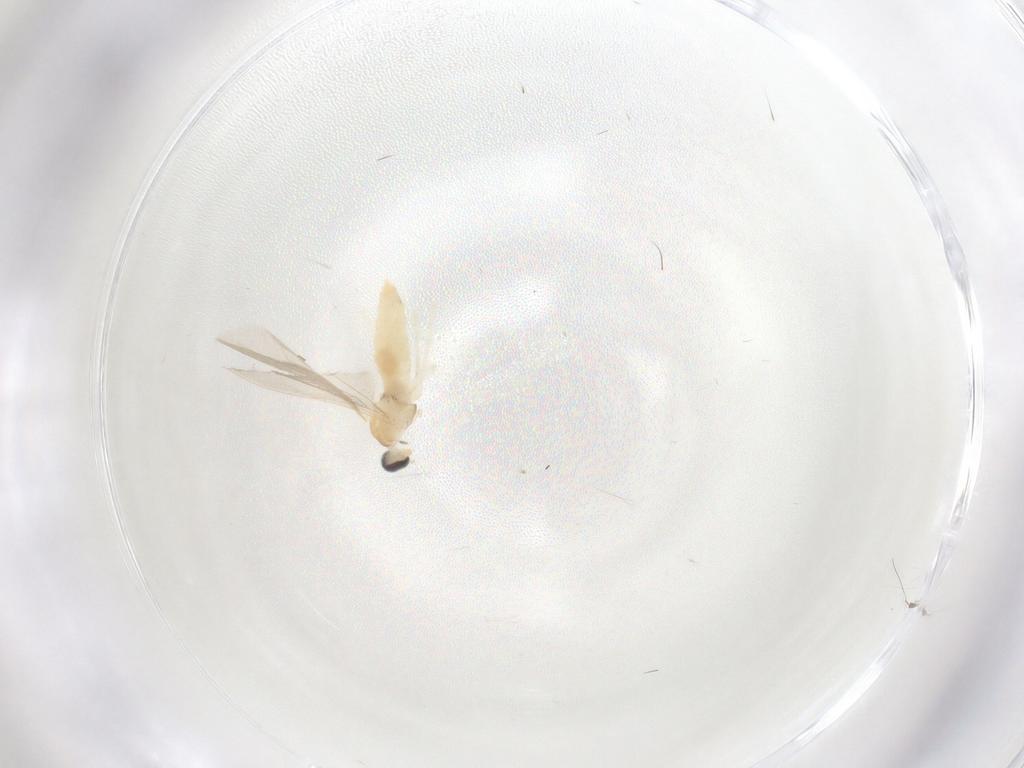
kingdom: Animalia
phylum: Arthropoda
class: Insecta
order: Diptera
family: Cecidomyiidae
